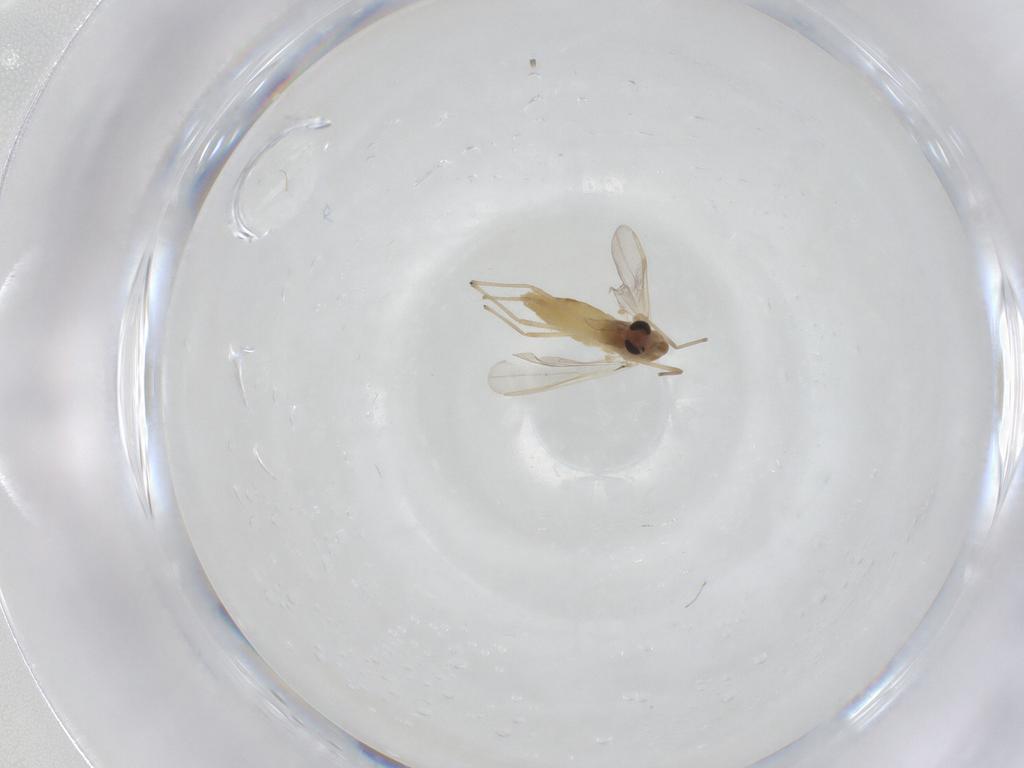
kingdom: Animalia
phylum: Arthropoda
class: Insecta
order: Diptera
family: Chironomidae
